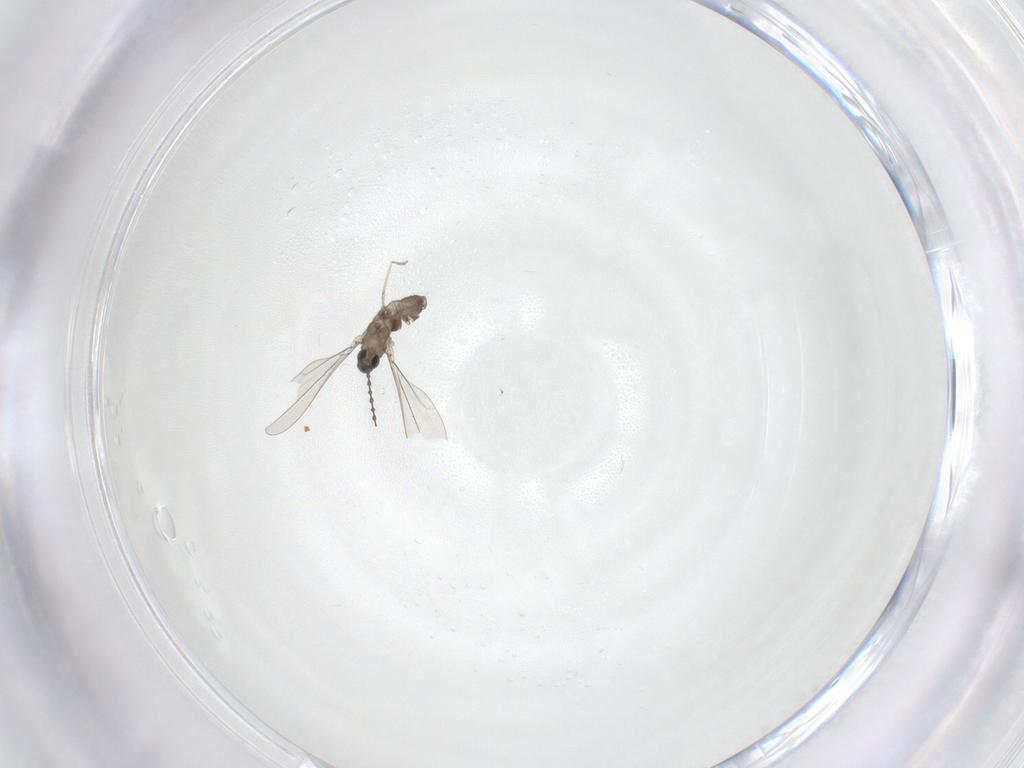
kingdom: Animalia
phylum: Arthropoda
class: Insecta
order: Diptera
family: Cecidomyiidae
